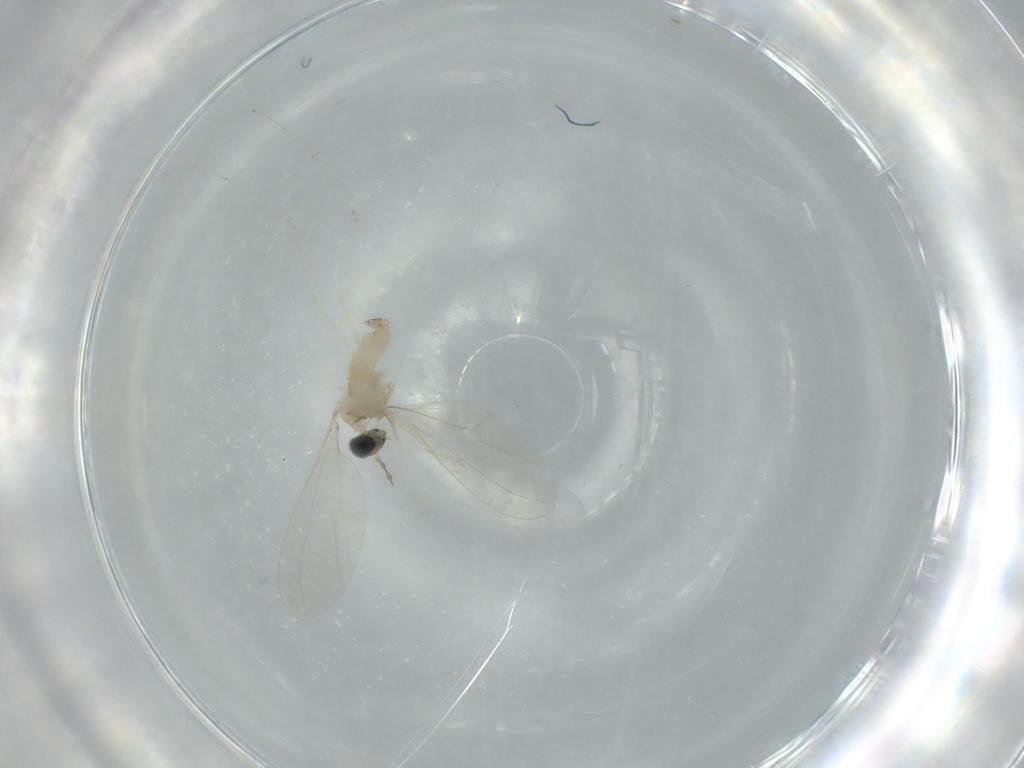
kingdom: Animalia
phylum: Arthropoda
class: Insecta
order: Diptera
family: Cecidomyiidae
